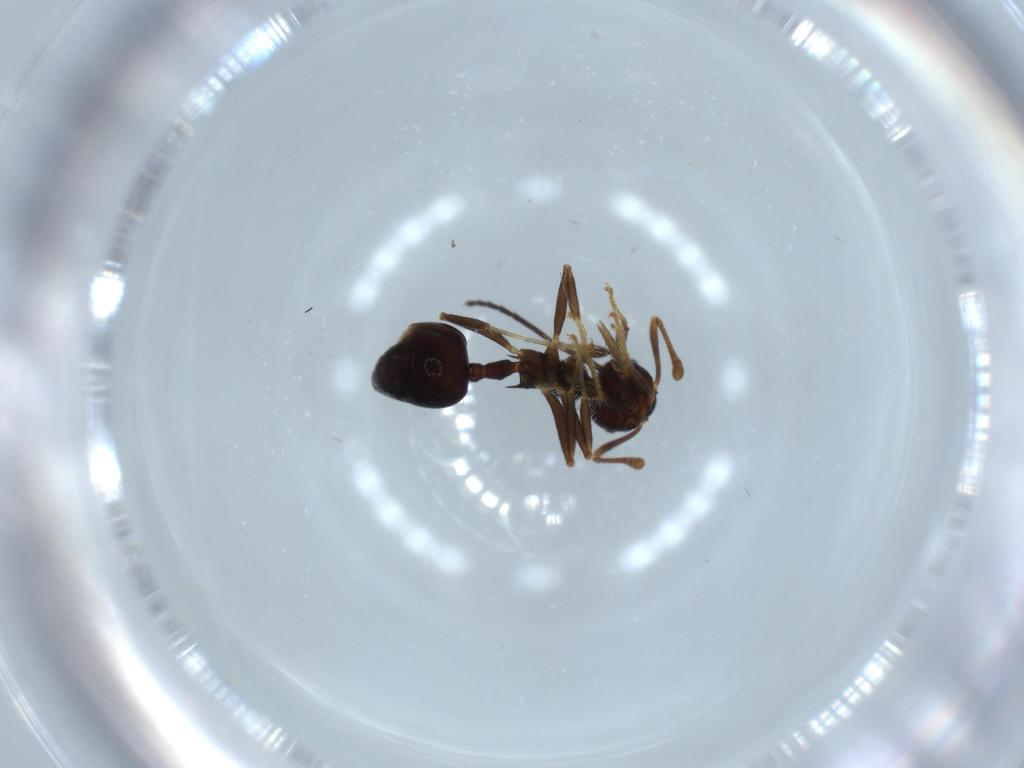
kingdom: Animalia
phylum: Arthropoda
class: Insecta
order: Hymenoptera
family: Formicidae
